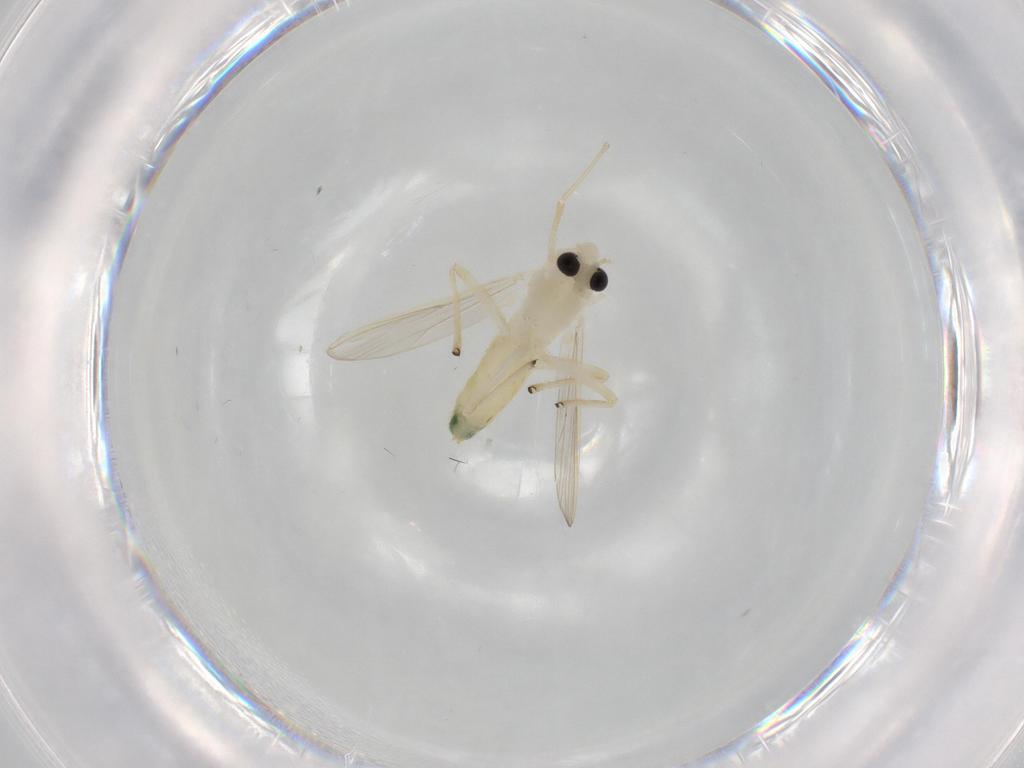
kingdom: Animalia
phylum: Arthropoda
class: Insecta
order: Diptera
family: Chironomidae
